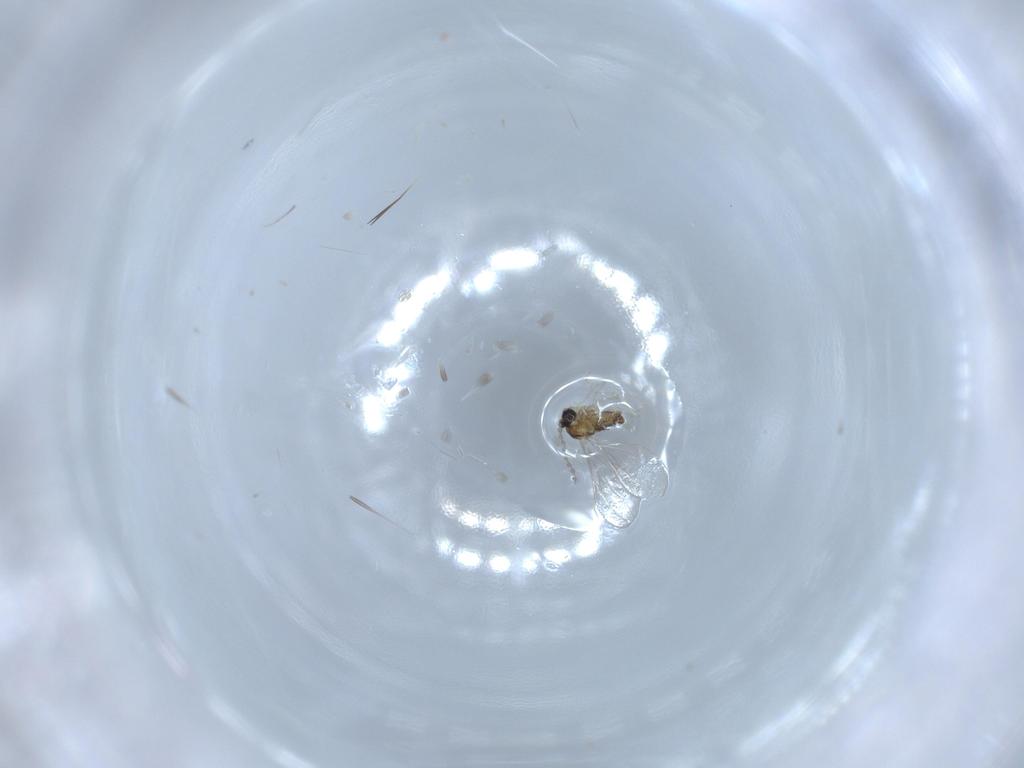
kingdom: Animalia
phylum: Arthropoda
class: Insecta
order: Diptera
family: Cecidomyiidae
